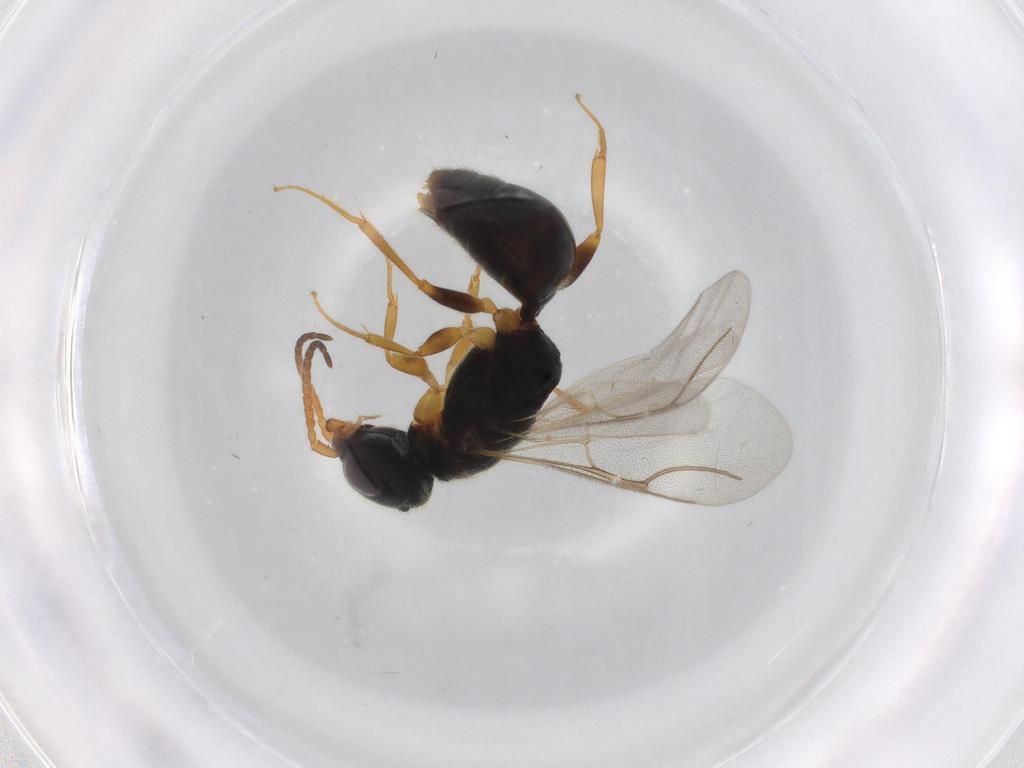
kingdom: Animalia
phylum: Arthropoda
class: Insecta
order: Hymenoptera
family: Bethylidae
